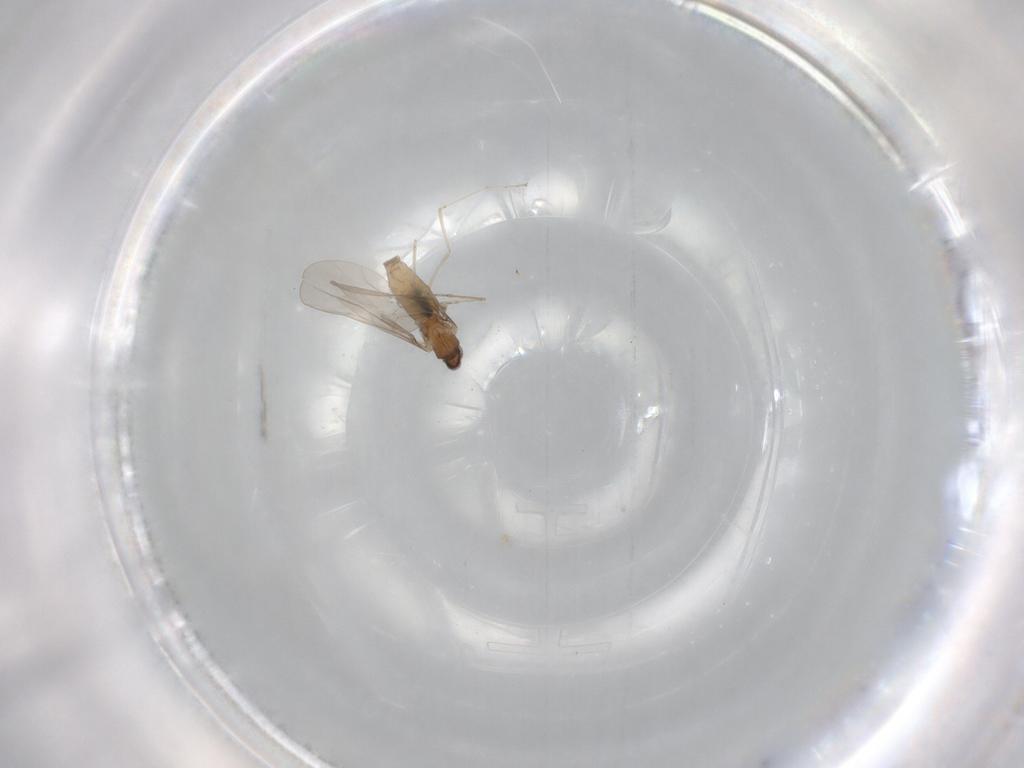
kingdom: Animalia
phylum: Arthropoda
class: Insecta
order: Diptera
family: Cecidomyiidae
